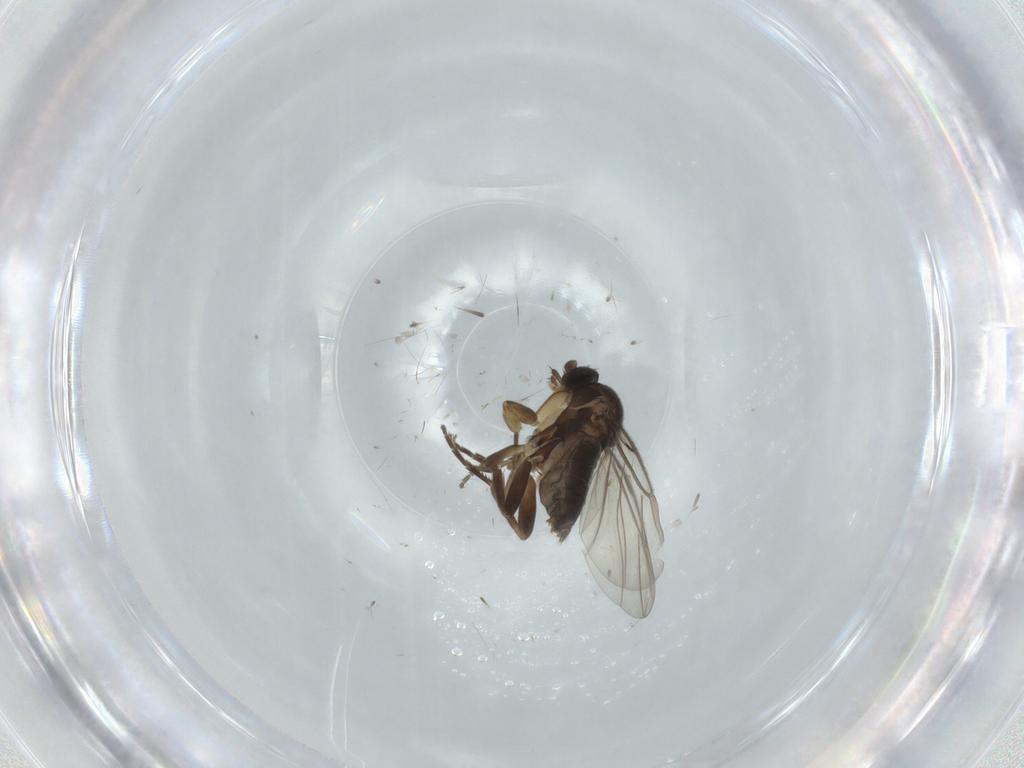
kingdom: Animalia
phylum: Arthropoda
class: Insecta
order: Diptera
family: Phoridae
